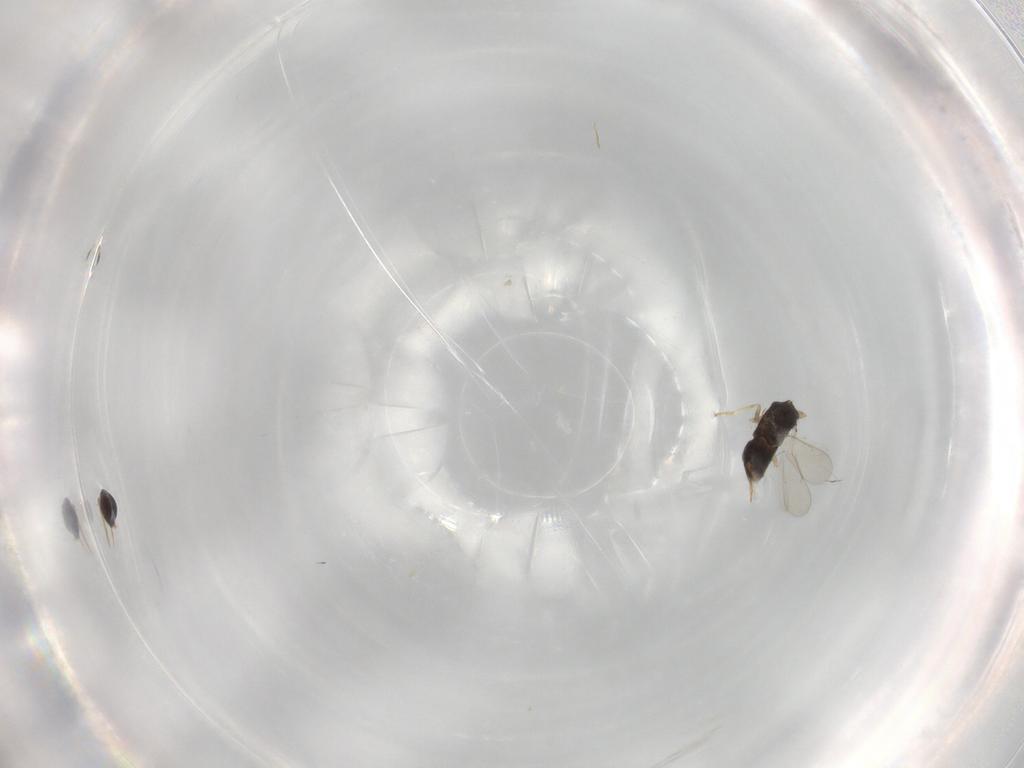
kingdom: Animalia
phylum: Arthropoda
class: Insecta
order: Hymenoptera
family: Aphelinidae
